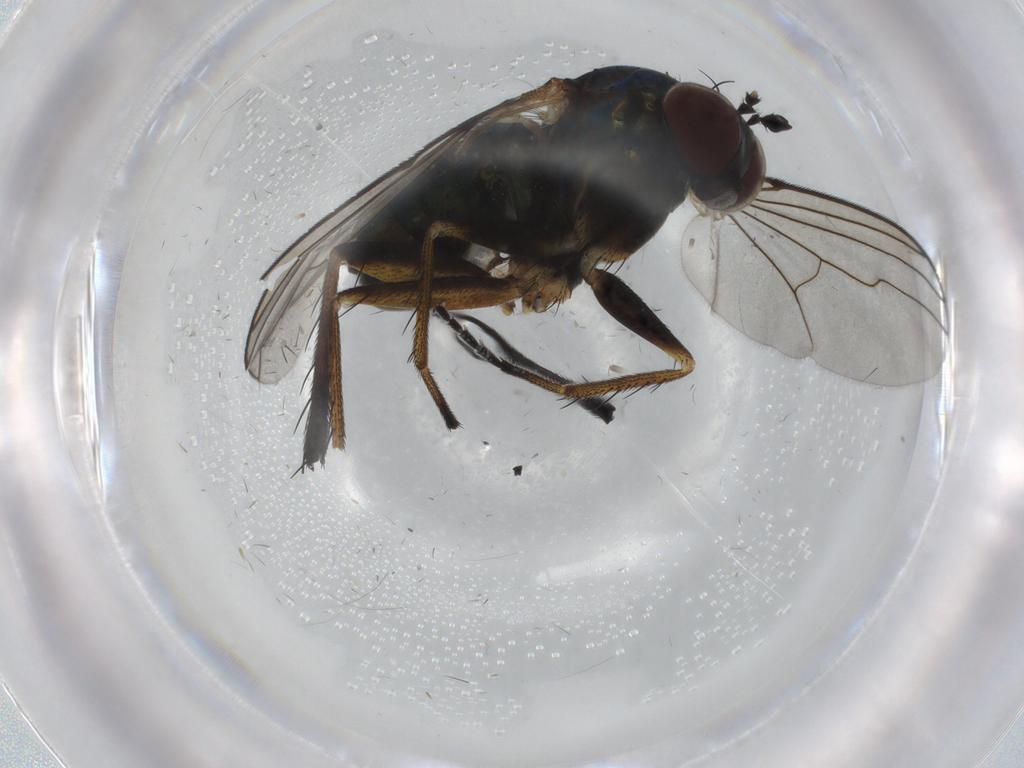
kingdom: Animalia
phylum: Arthropoda
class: Insecta
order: Diptera
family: Dolichopodidae
